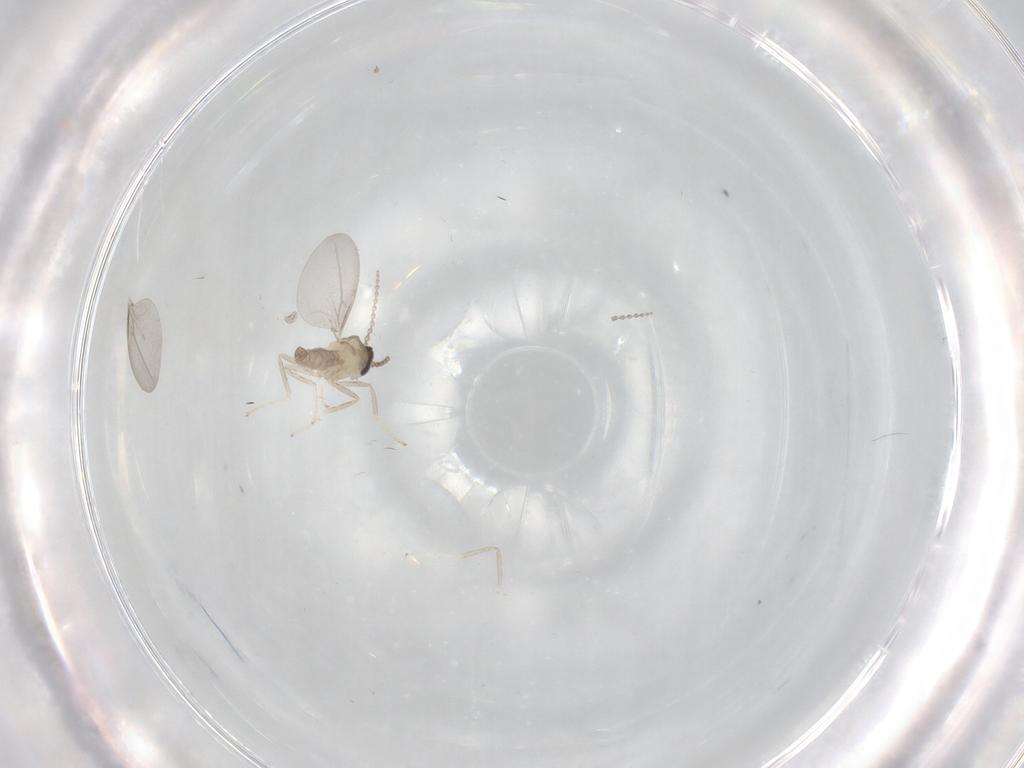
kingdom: Animalia
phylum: Arthropoda
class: Insecta
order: Diptera
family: Cecidomyiidae
